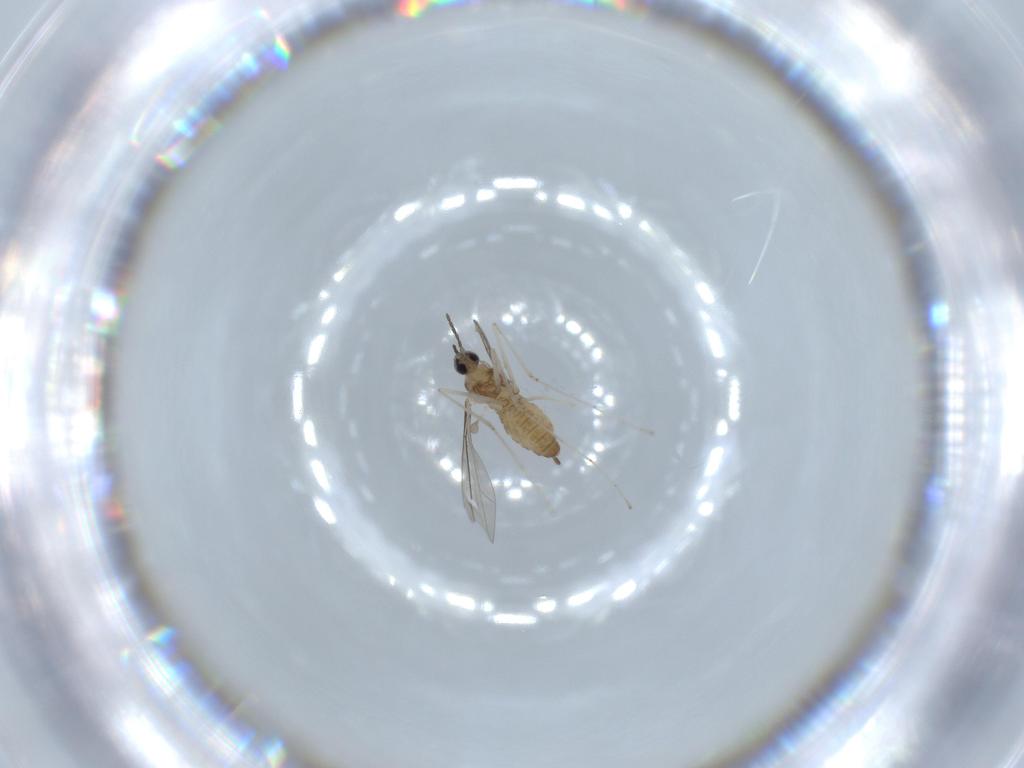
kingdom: Animalia
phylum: Arthropoda
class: Insecta
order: Diptera
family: Cecidomyiidae
